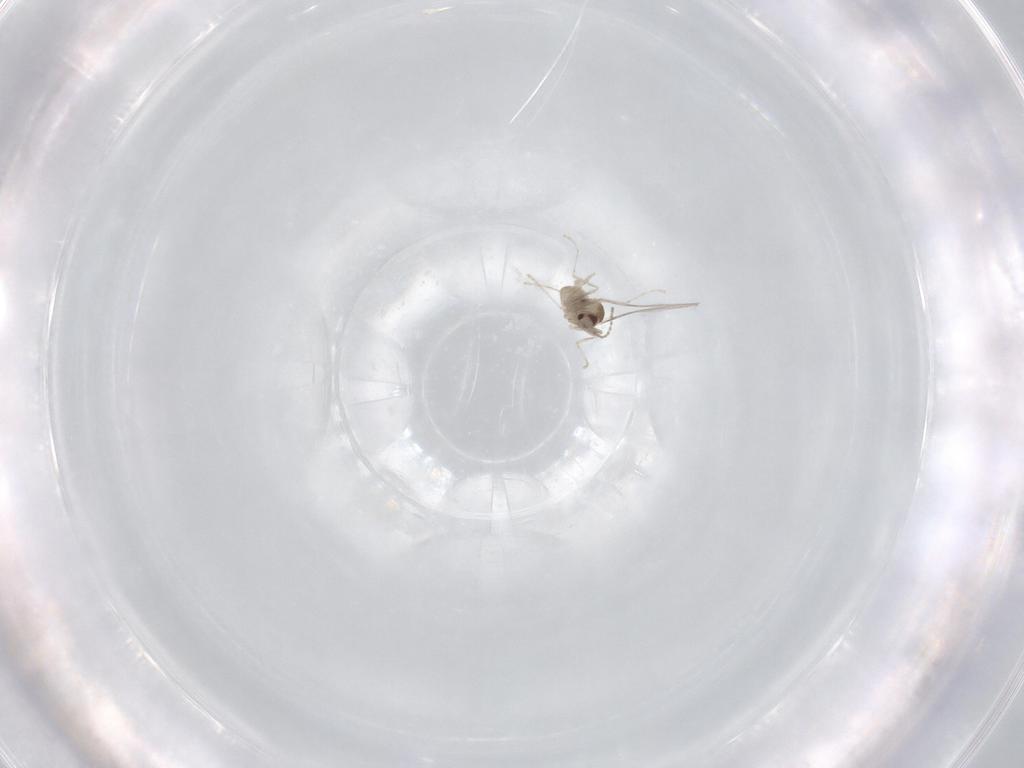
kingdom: Animalia
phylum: Arthropoda
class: Insecta
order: Diptera
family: Cecidomyiidae
